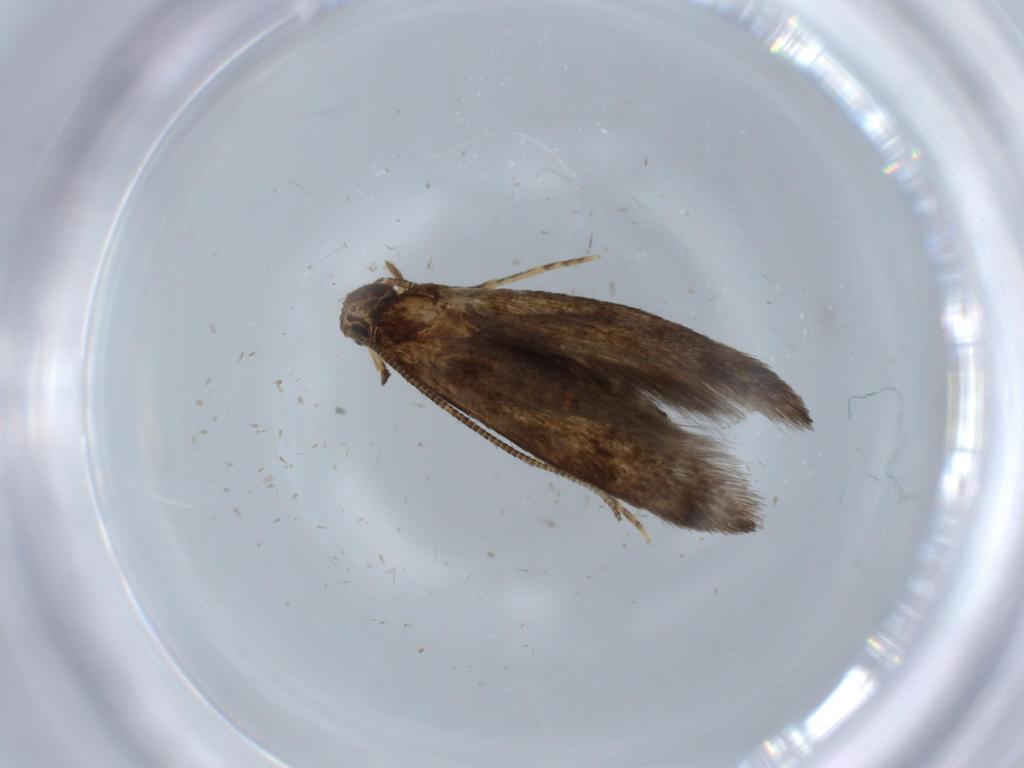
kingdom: Animalia
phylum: Arthropoda
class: Insecta
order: Lepidoptera
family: Tineidae
